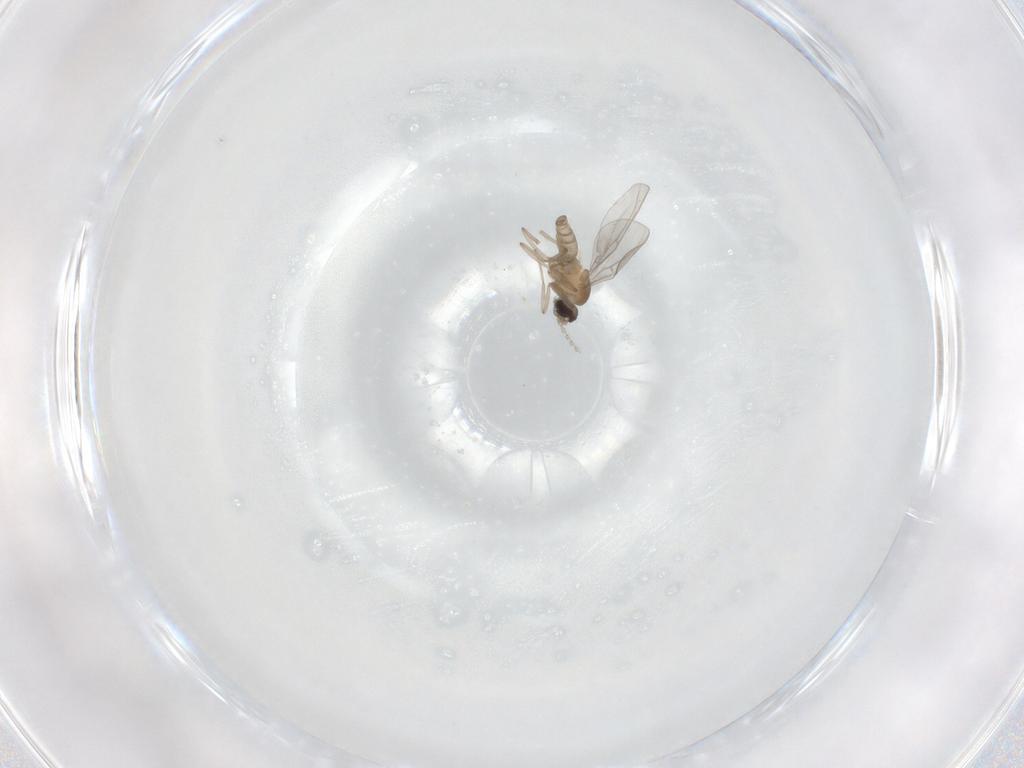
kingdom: Animalia
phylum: Arthropoda
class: Insecta
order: Diptera
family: Cecidomyiidae
